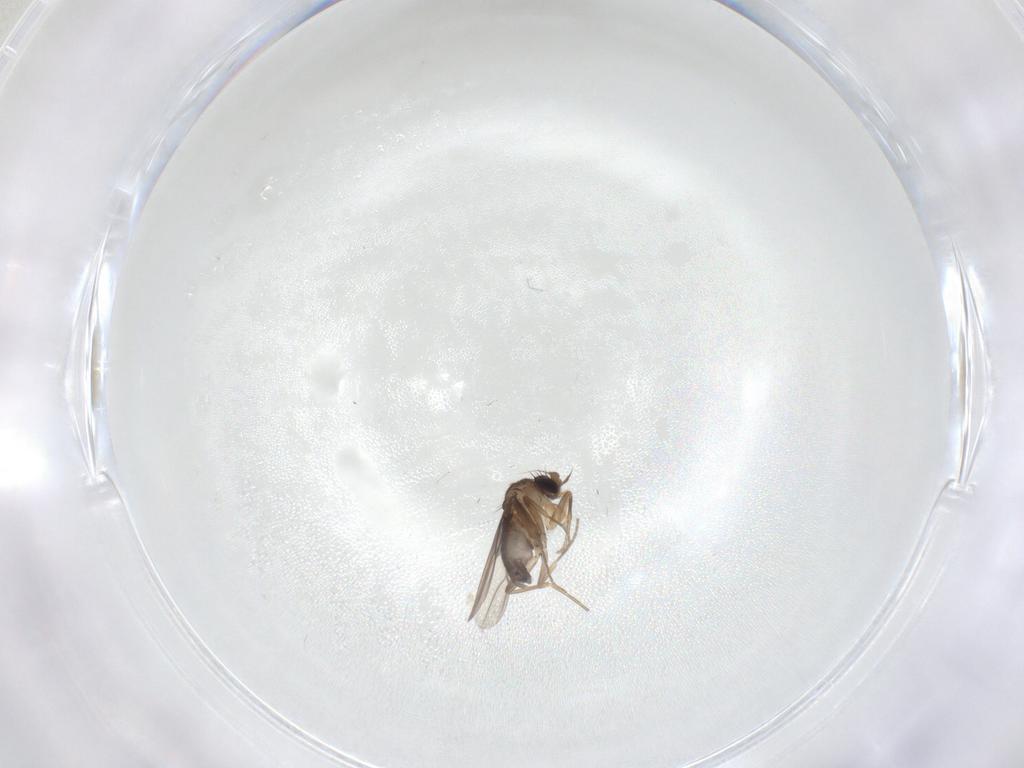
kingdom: Animalia
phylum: Arthropoda
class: Insecta
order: Diptera
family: Phoridae
